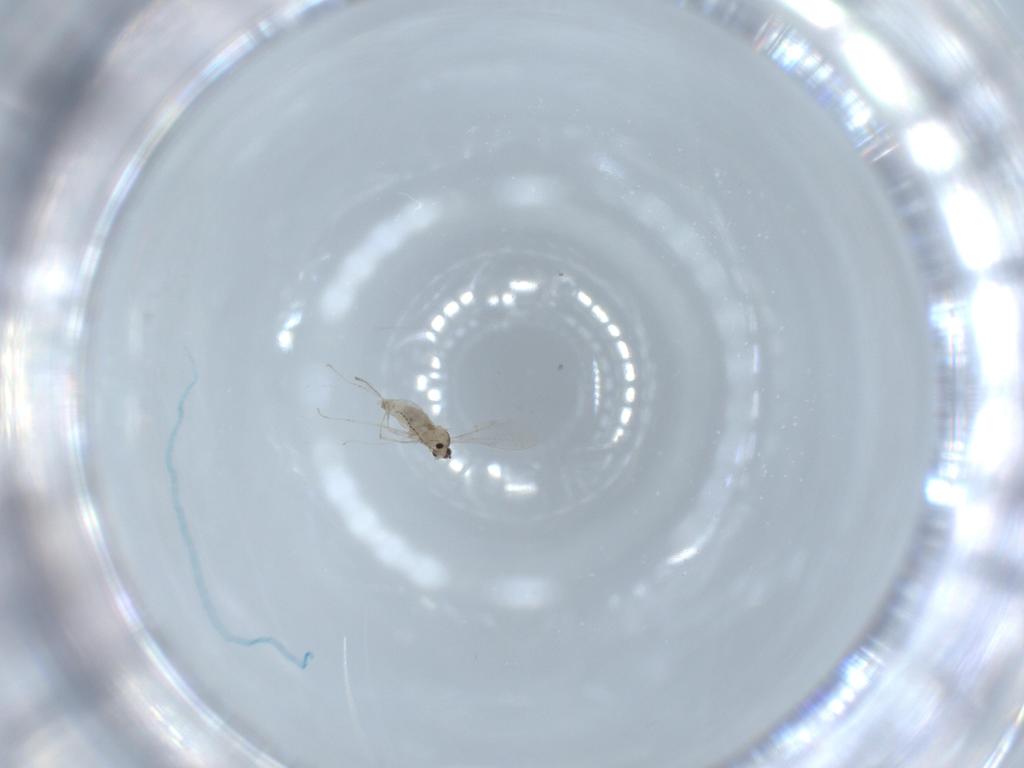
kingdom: Animalia
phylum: Arthropoda
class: Insecta
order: Diptera
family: Cecidomyiidae
